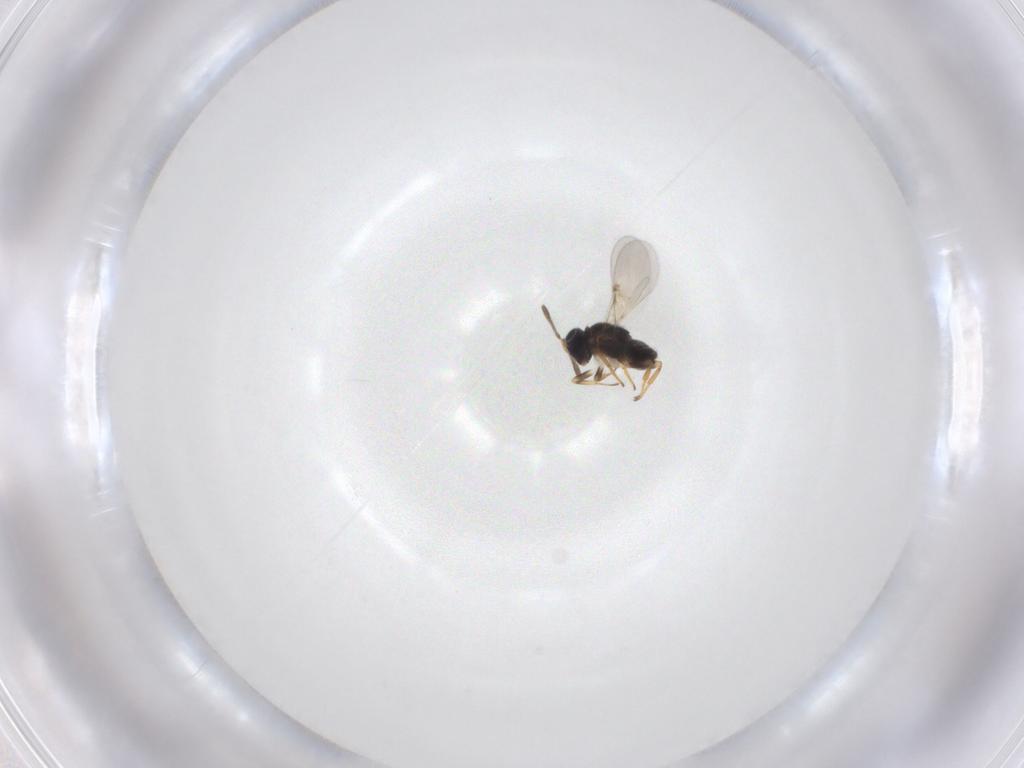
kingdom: Animalia
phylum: Arthropoda
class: Insecta
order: Hymenoptera
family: Encyrtidae
